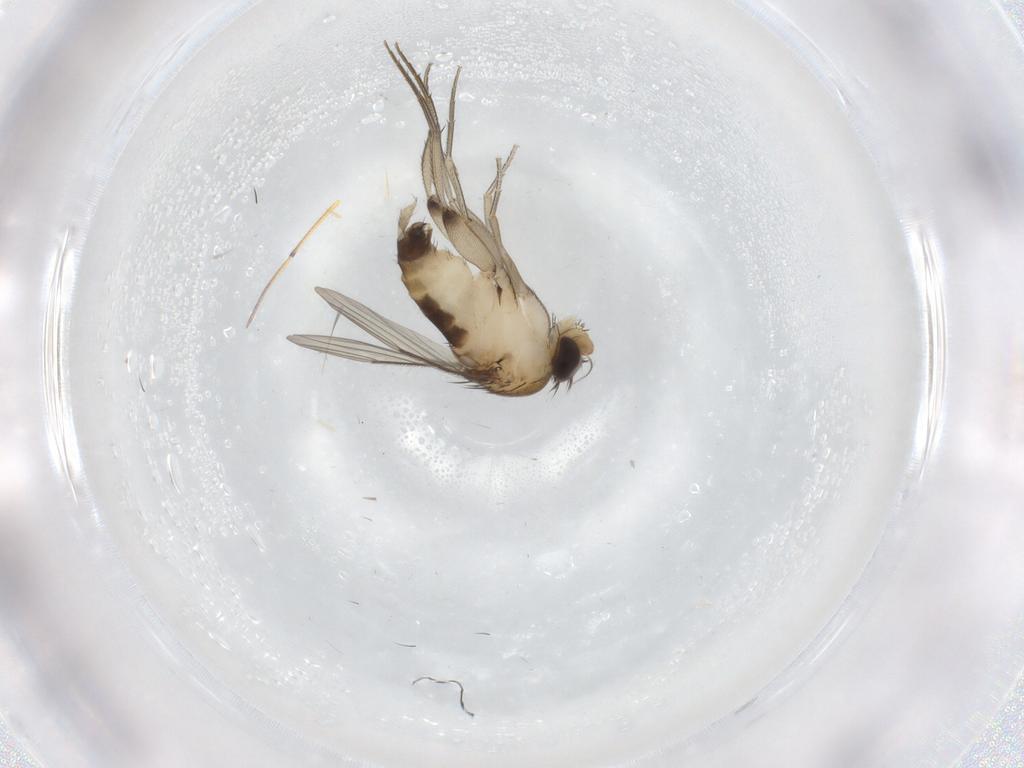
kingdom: Animalia
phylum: Arthropoda
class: Insecta
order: Diptera
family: Phoridae
